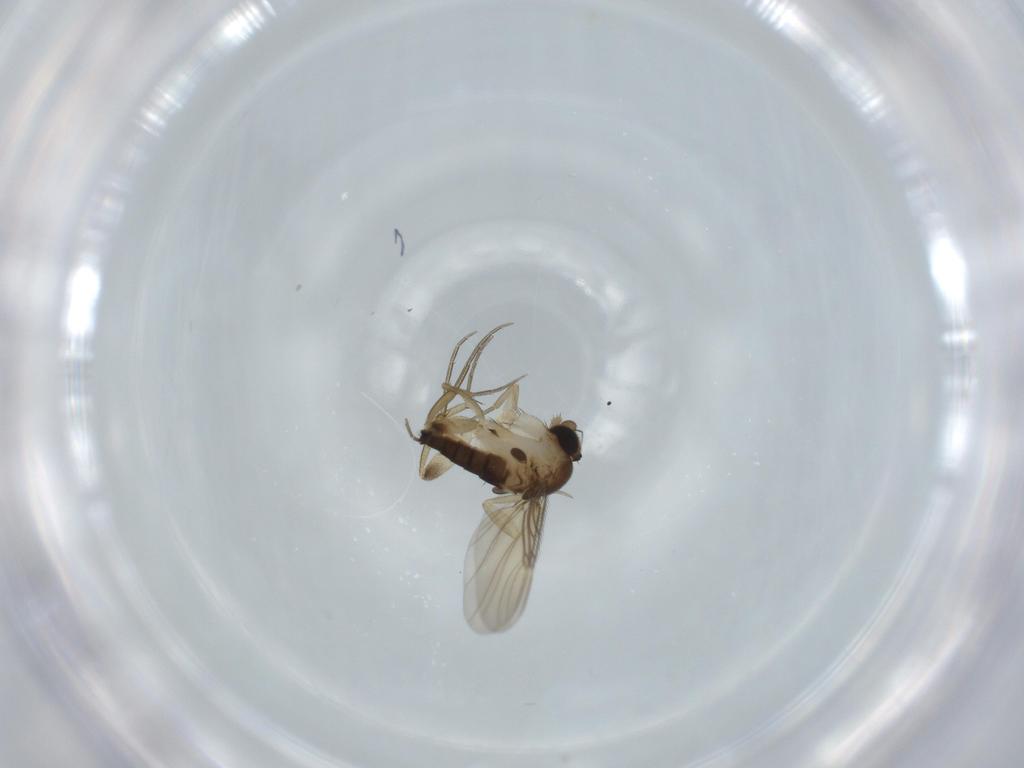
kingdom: Animalia
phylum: Arthropoda
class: Insecta
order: Diptera
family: Phoridae
